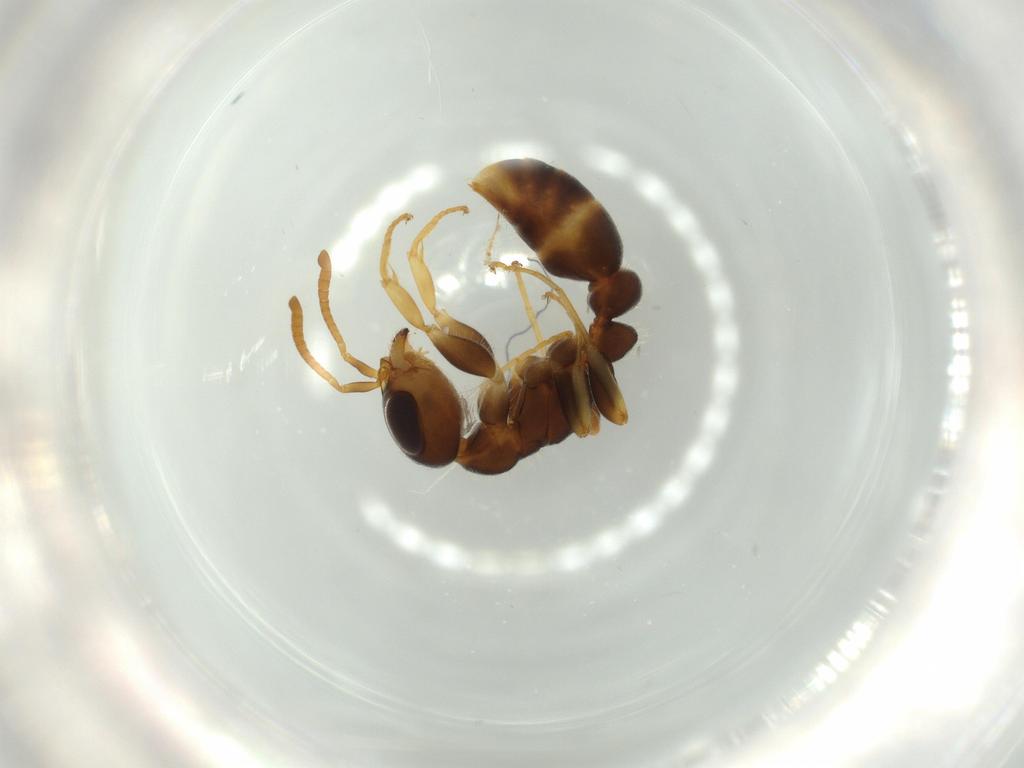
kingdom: Animalia
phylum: Arthropoda
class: Insecta
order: Hymenoptera
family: Formicidae
